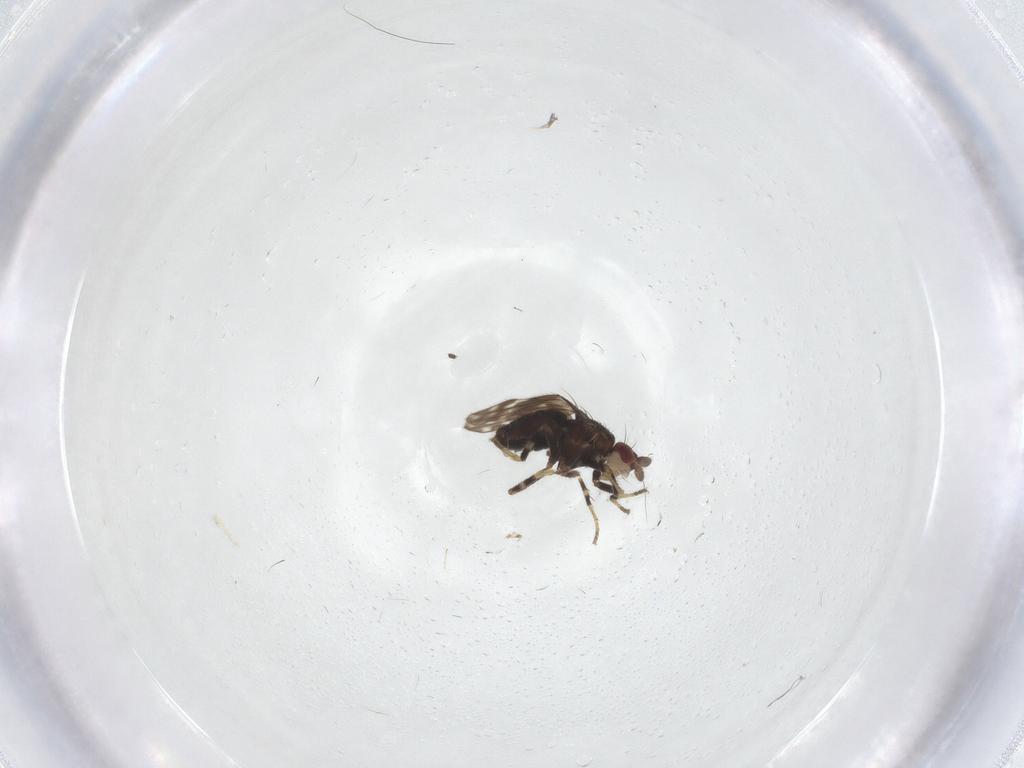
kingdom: Animalia
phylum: Arthropoda
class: Insecta
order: Diptera
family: Sphaeroceridae
